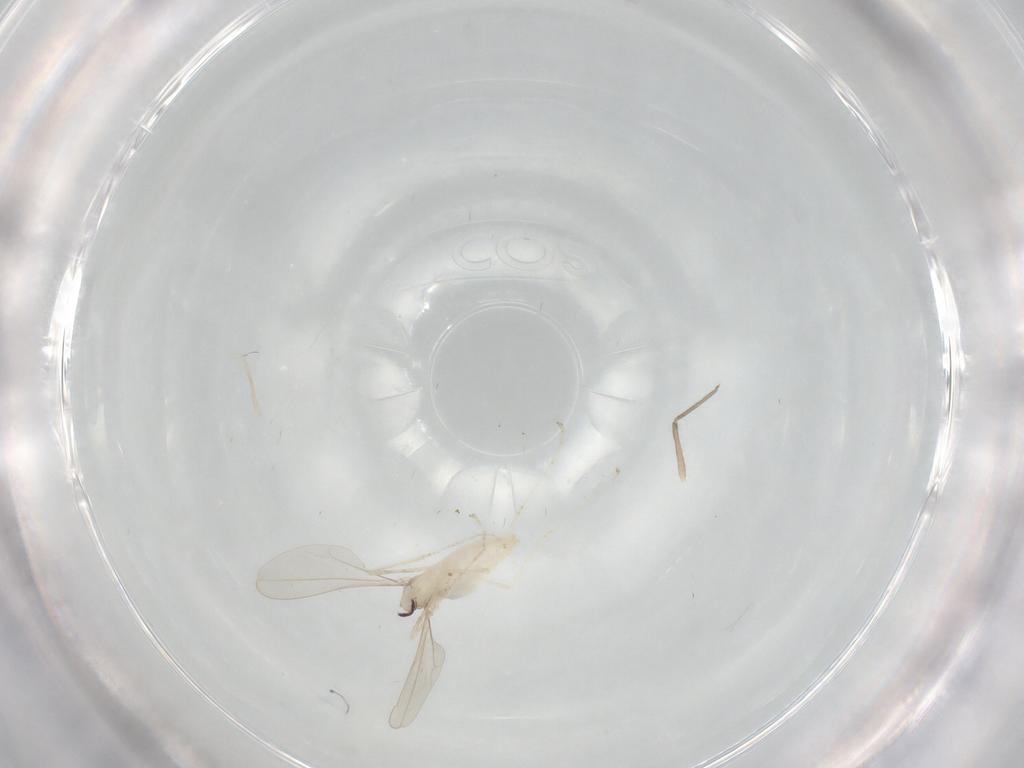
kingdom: Animalia
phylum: Arthropoda
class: Insecta
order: Diptera
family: Cecidomyiidae
